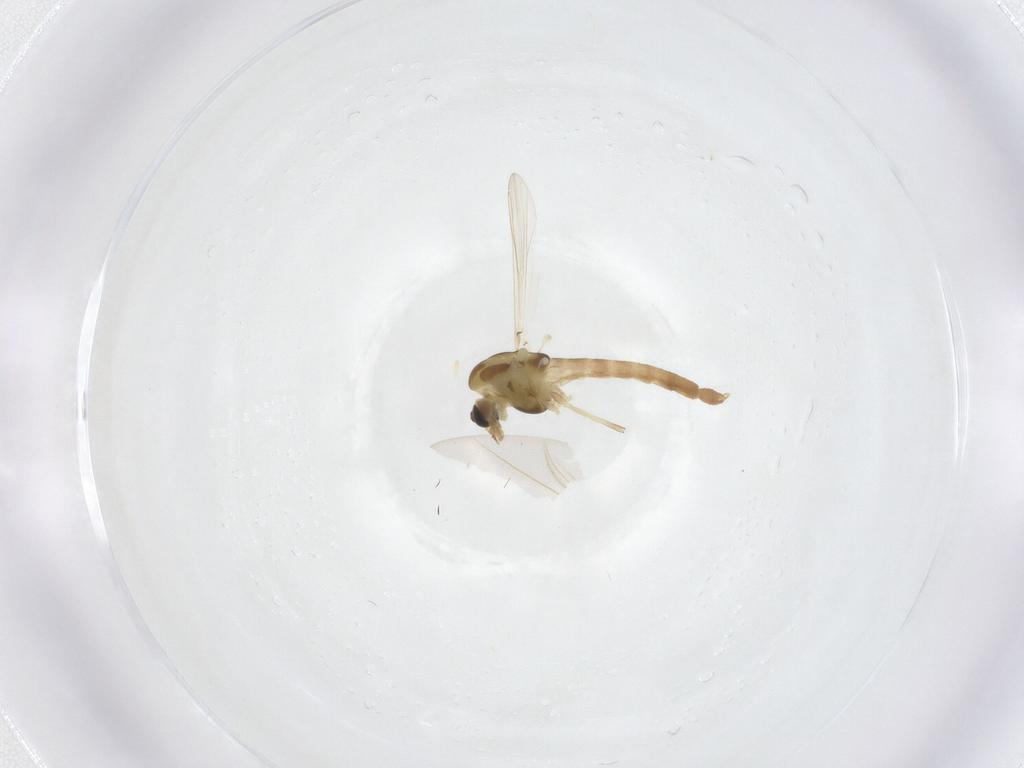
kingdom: Animalia
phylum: Arthropoda
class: Insecta
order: Diptera
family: Chironomidae
